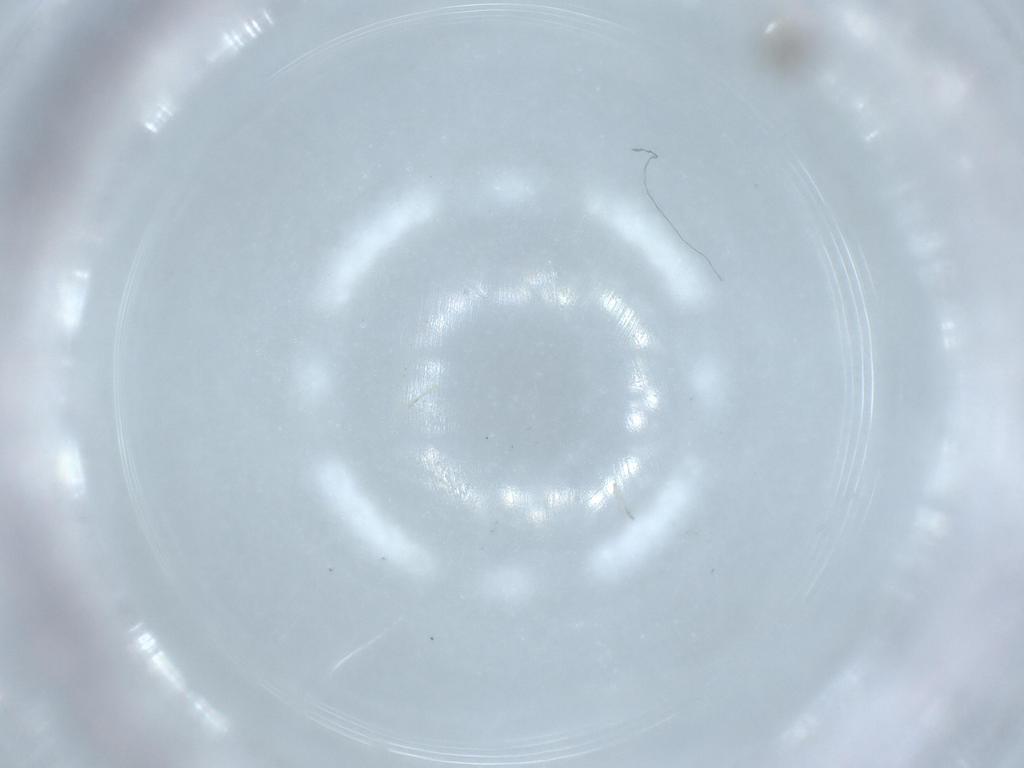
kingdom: Animalia
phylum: Arthropoda
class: Insecta
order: Diptera
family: Cecidomyiidae
